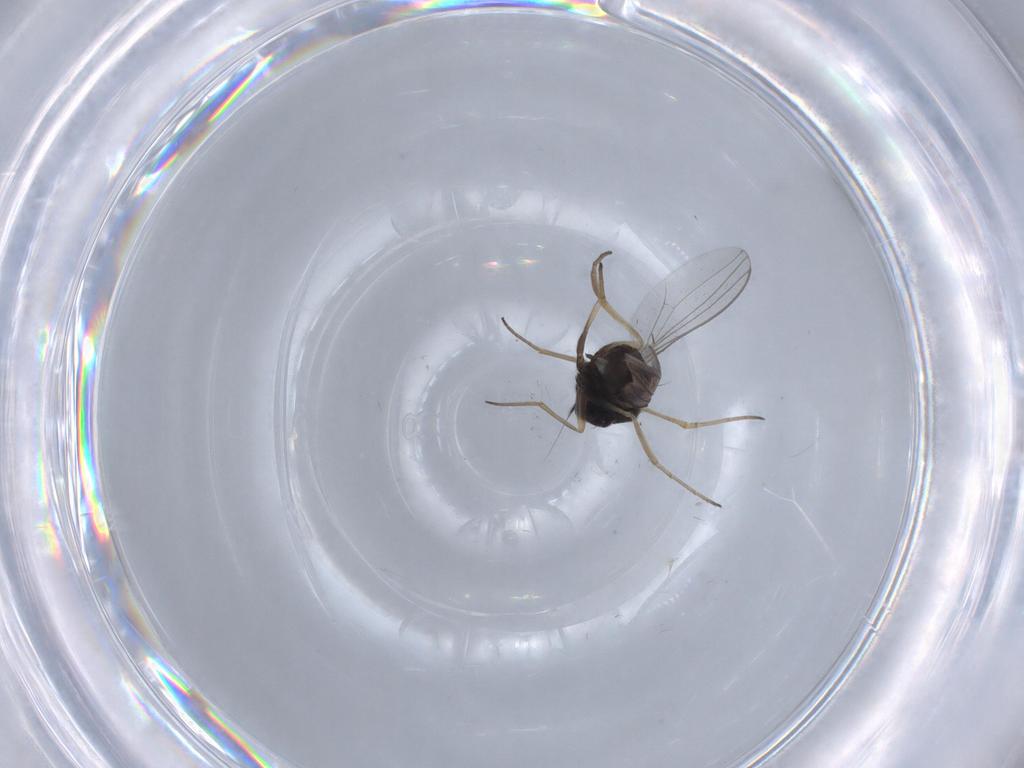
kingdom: Animalia
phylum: Arthropoda
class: Insecta
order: Diptera
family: Dolichopodidae
